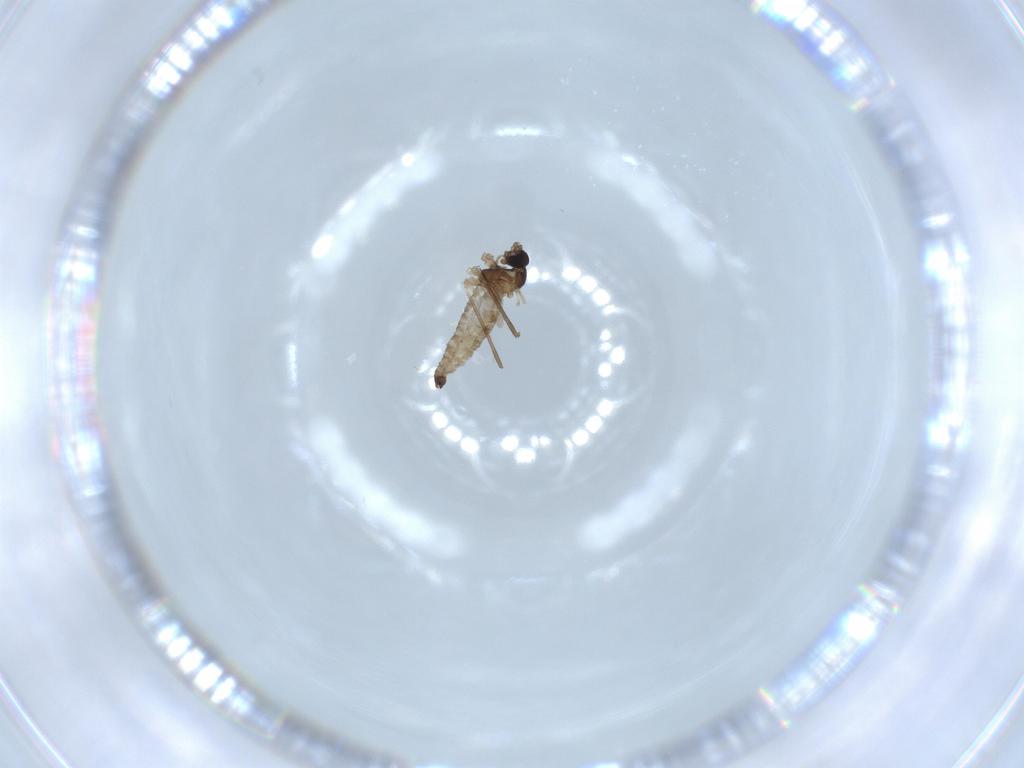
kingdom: Animalia
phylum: Arthropoda
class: Insecta
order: Diptera
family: Cecidomyiidae
